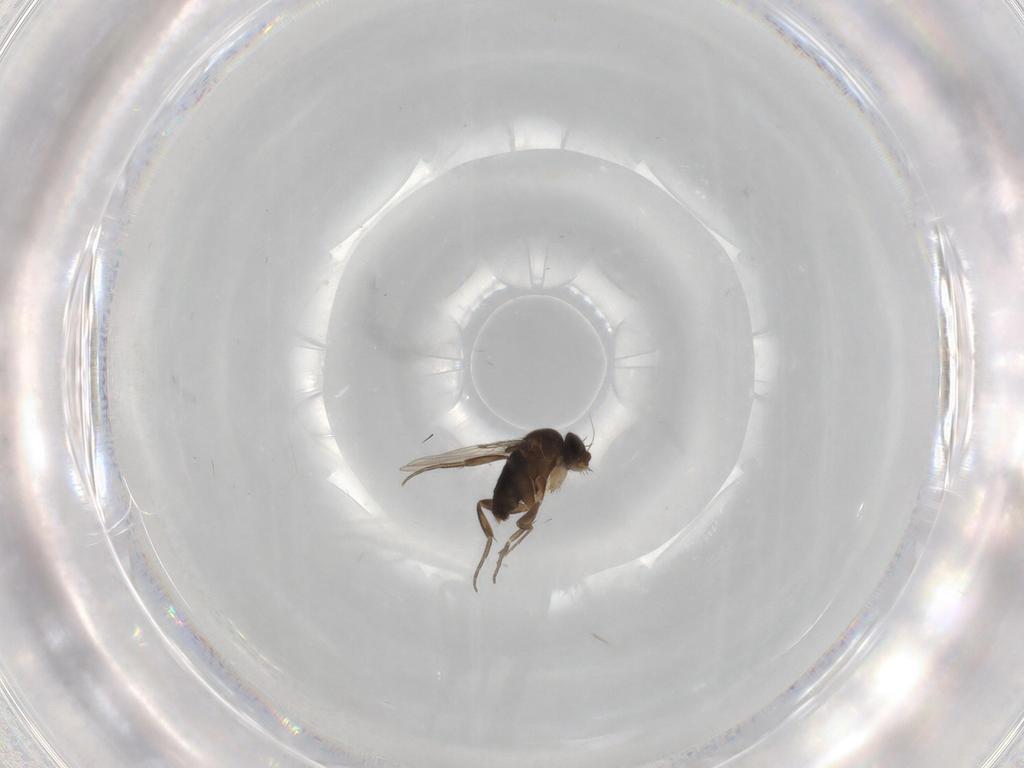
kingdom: Animalia
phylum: Arthropoda
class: Insecta
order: Diptera
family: Phoridae
